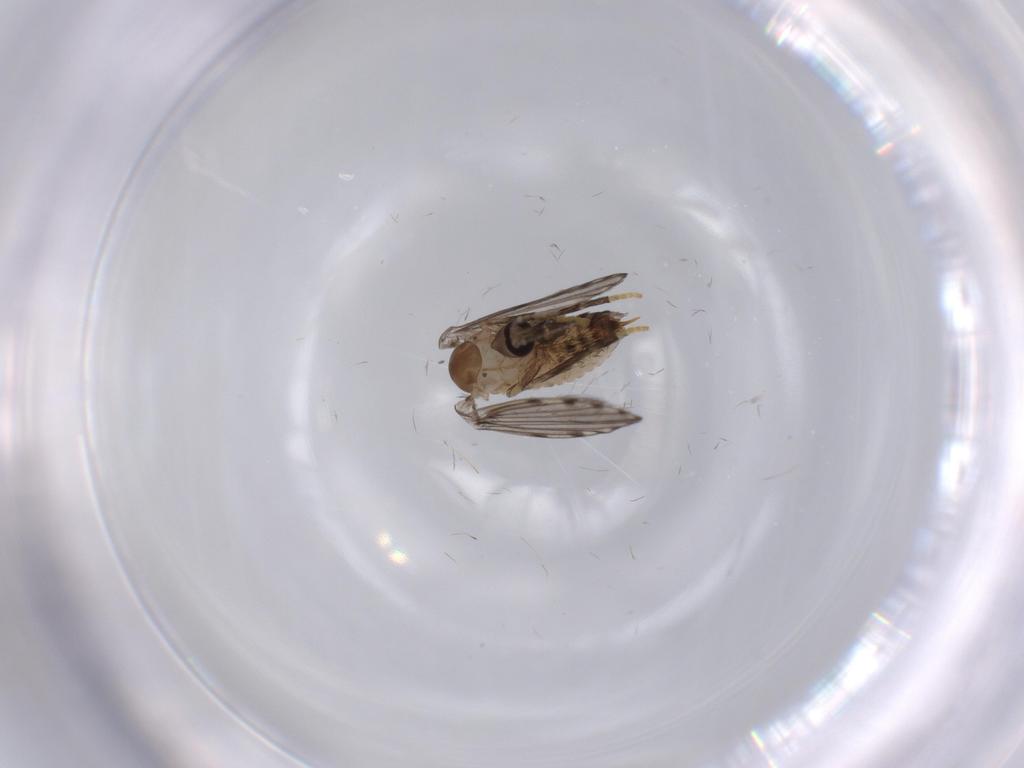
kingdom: Animalia
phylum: Arthropoda
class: Insecta
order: Diptera
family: Psychodidae
